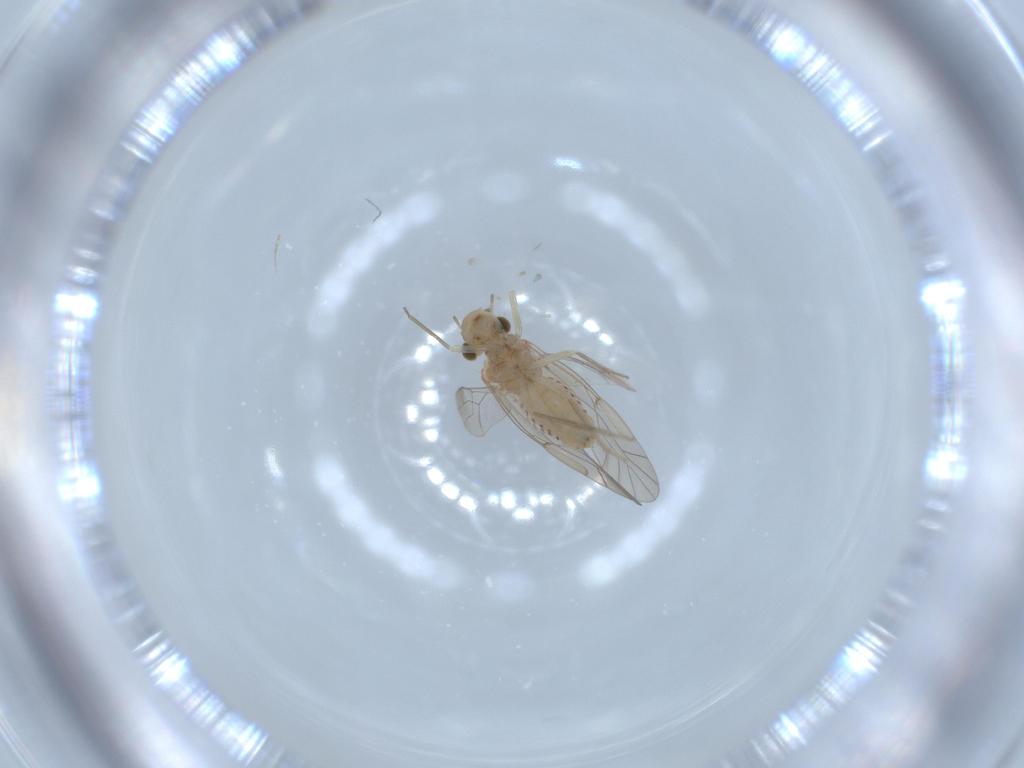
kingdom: Animalia
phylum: Arthropoda
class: Insecta
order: Psocodea
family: Lachesillidae
